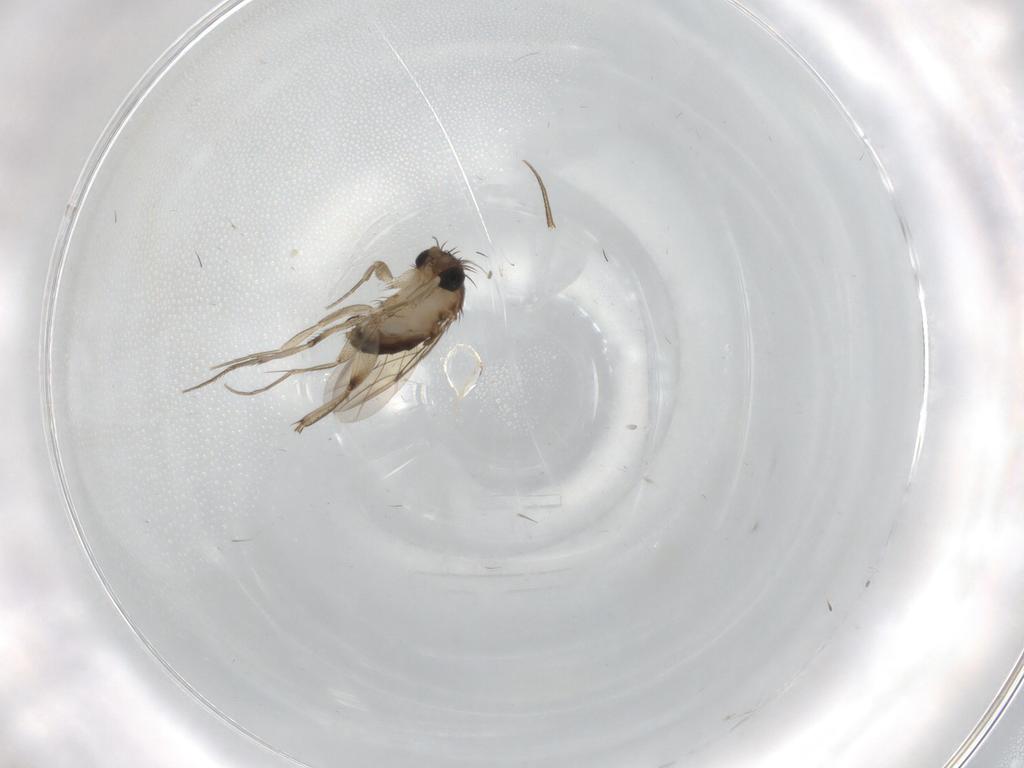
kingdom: Animalia
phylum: Arthropoda
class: Insecta
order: Diptera
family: Phoridae
